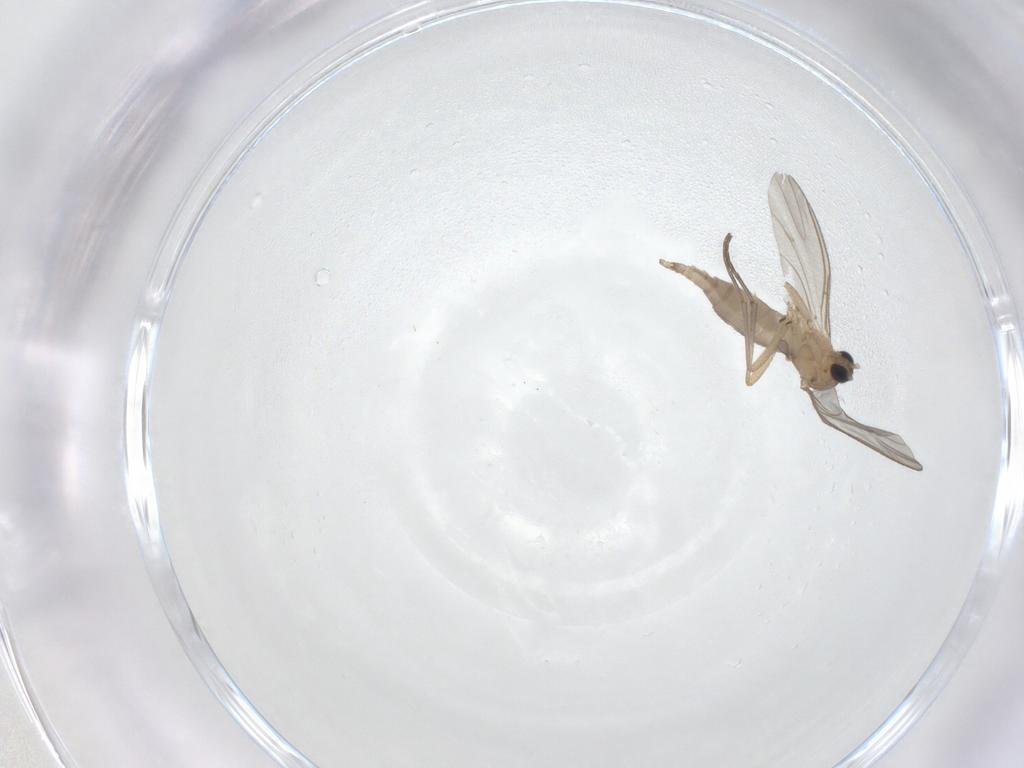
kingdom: Animalia
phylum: Arthropoda
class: Insecta
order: Diptera
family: Sciaridae
